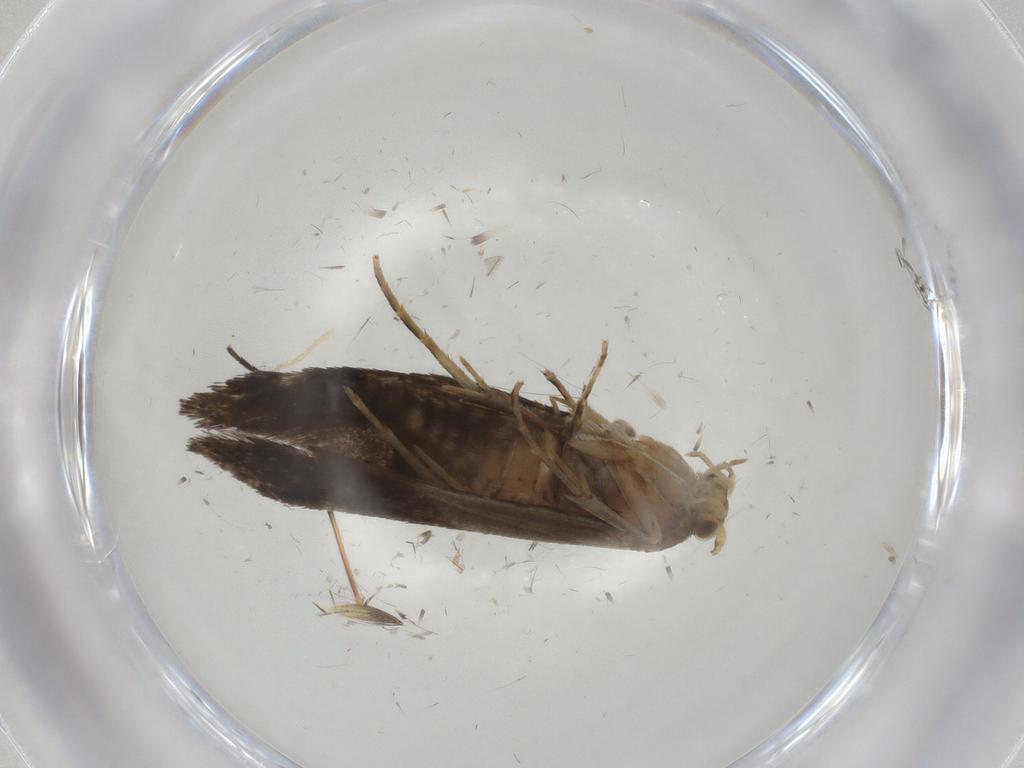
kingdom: Animalia
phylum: Arthropoda
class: Insecta
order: Lepidoptera
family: Tineidae
